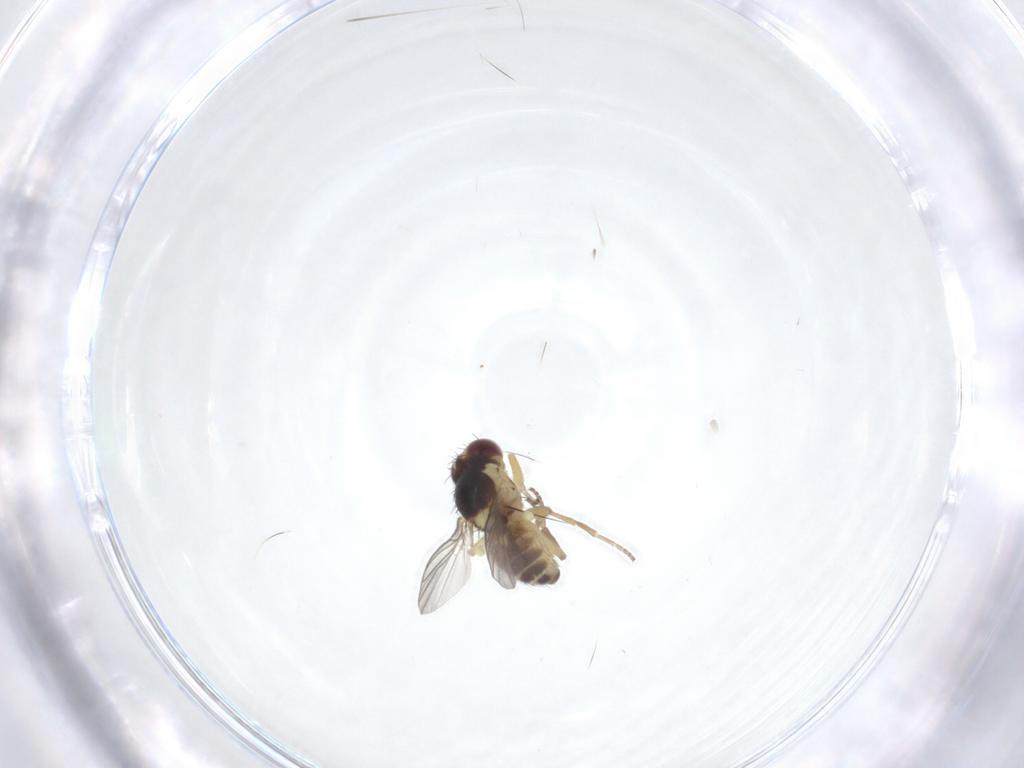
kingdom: Animalia
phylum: Arthropoda
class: Insecta
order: Diptera
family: Agromyzidae
